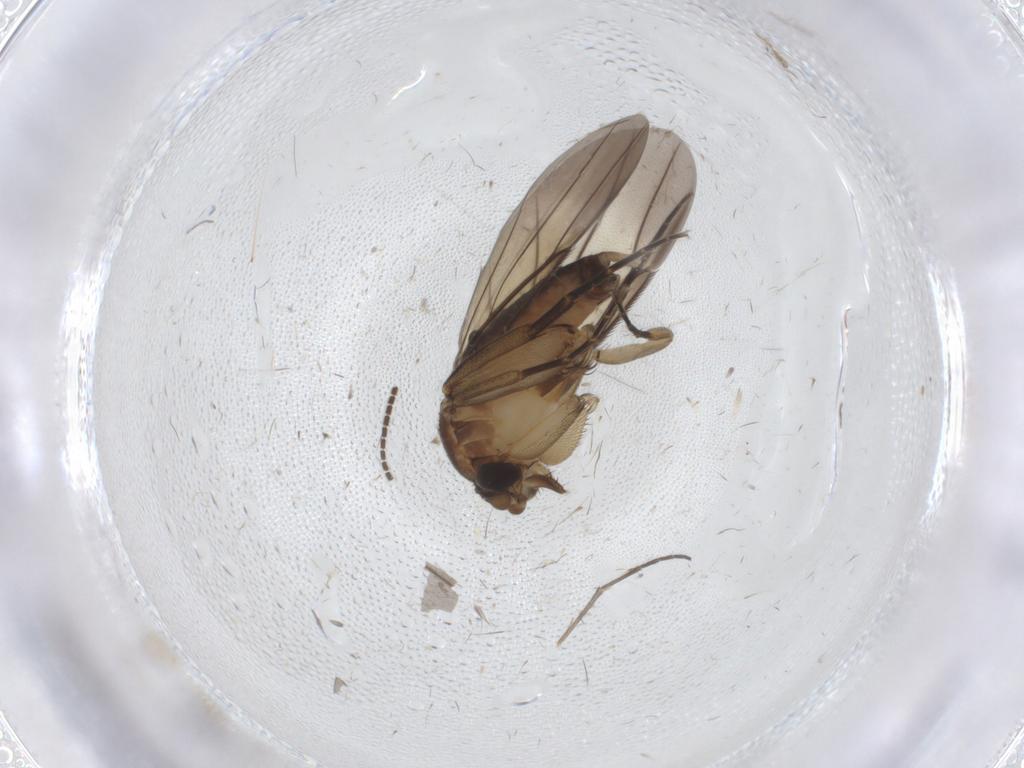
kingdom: Animalia
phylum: Arthropoda
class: Insecta
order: Diptera
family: Mycetophilidae
